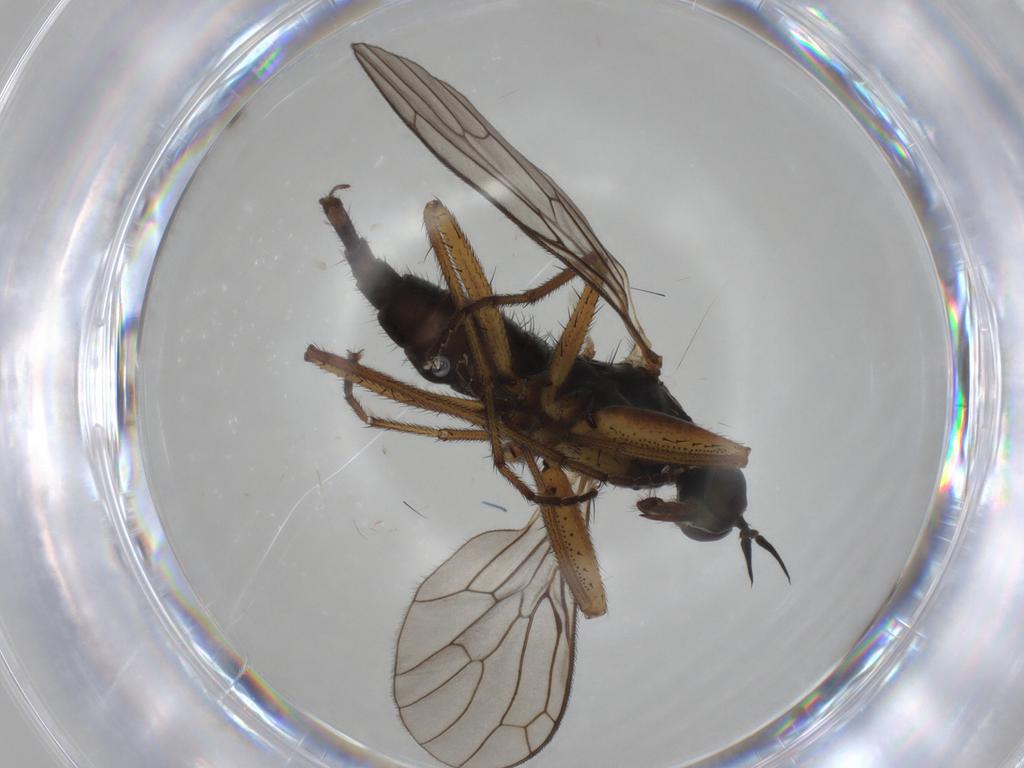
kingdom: Animalia
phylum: Arthropoda
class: Insecta
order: Diptera
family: Empididae
